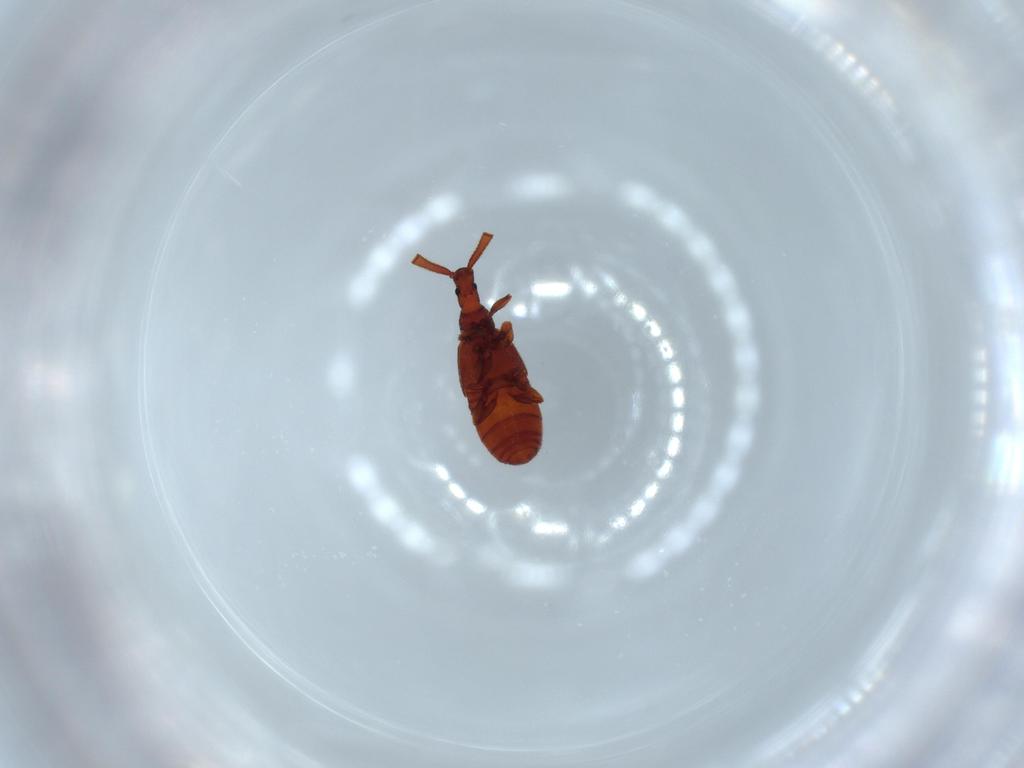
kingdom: Animalia
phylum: Arthropoda
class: Insecta
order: Coleoptera
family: Staphylinidae
